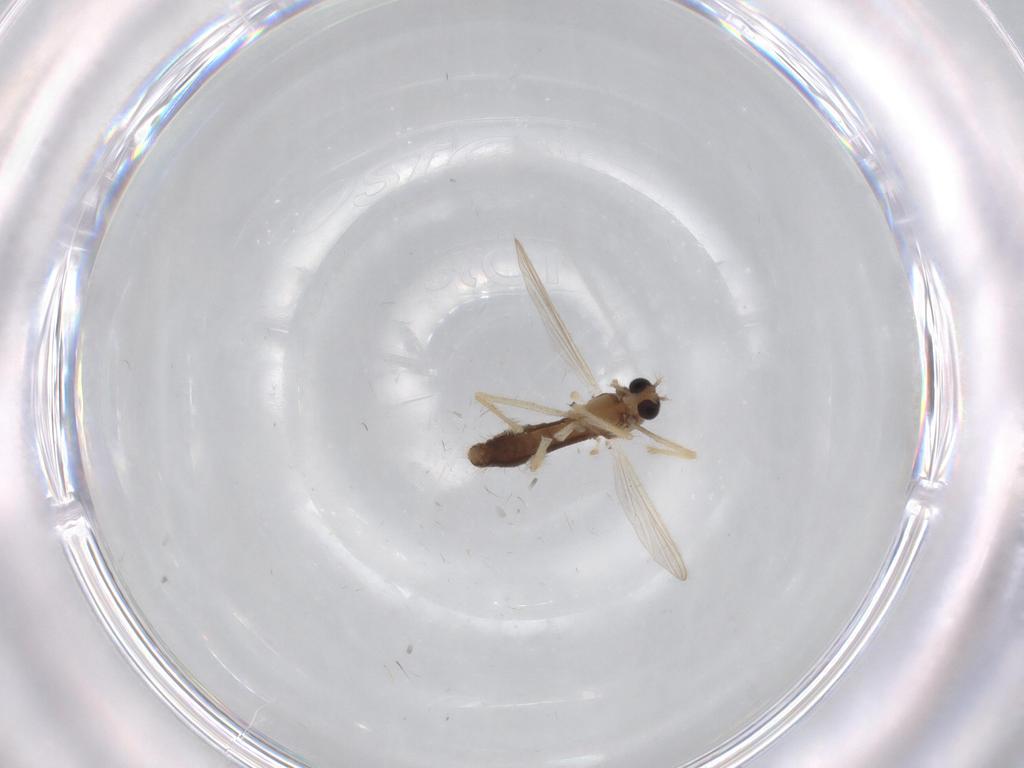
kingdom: Animalia
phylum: Arthropoda
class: Insecta
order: Diptera
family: Chironomidae
